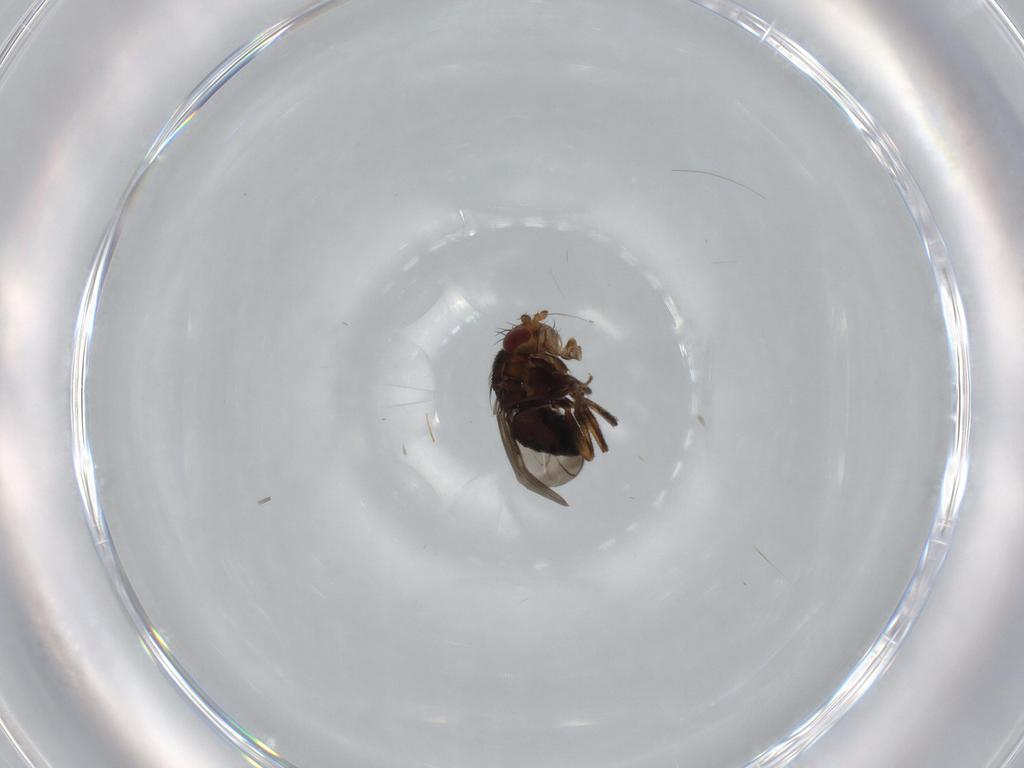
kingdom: Animalia
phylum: Arthropoda
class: Insecta
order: Diptera
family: Sphaeroceridae
